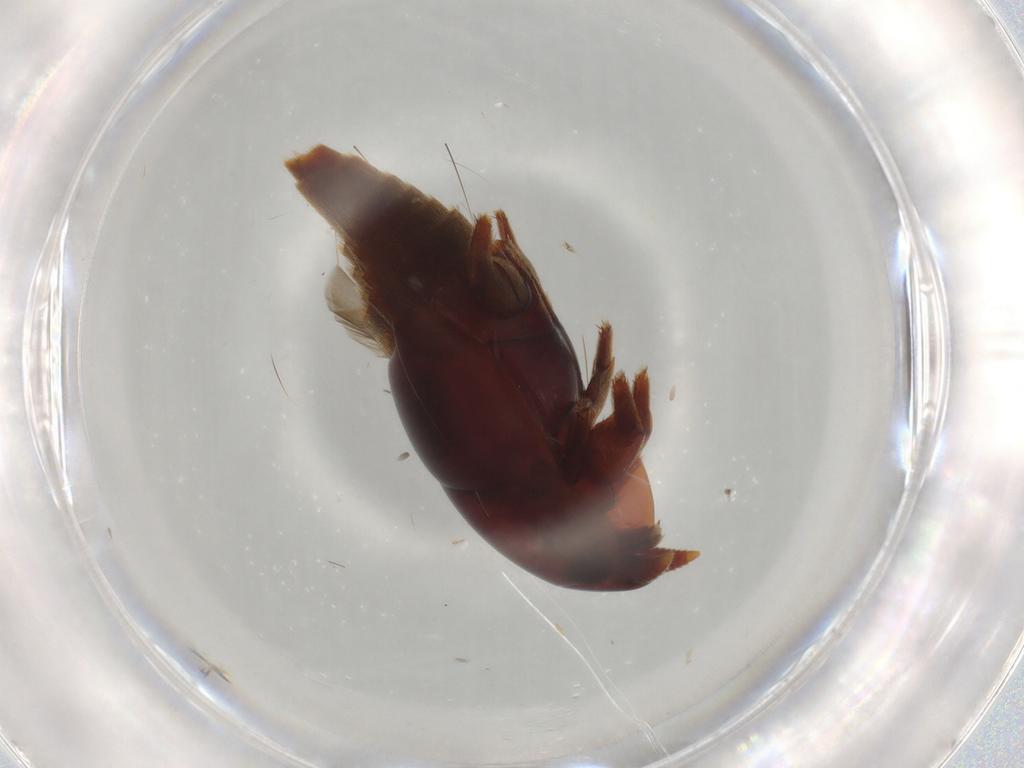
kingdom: Animalia
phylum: Arthropoda
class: Insecta
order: Coleoptera
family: Staphylinidae
